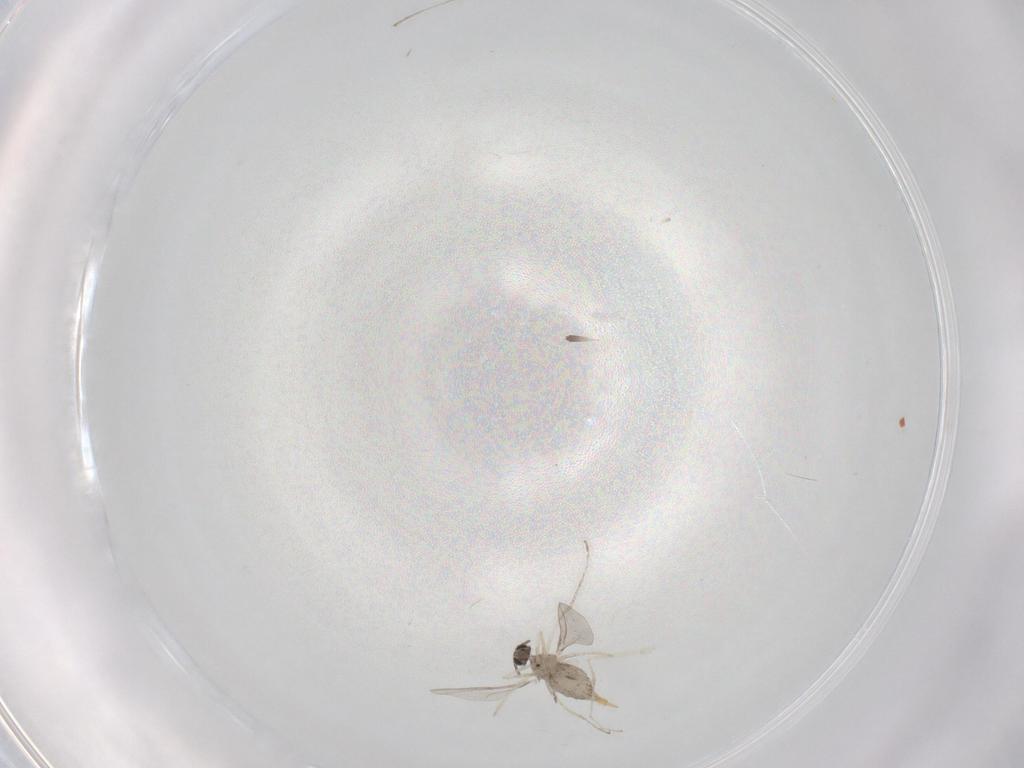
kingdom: Animalia
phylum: Arthropoda
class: Insecta
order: Diptera
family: Cecidomyiidae
